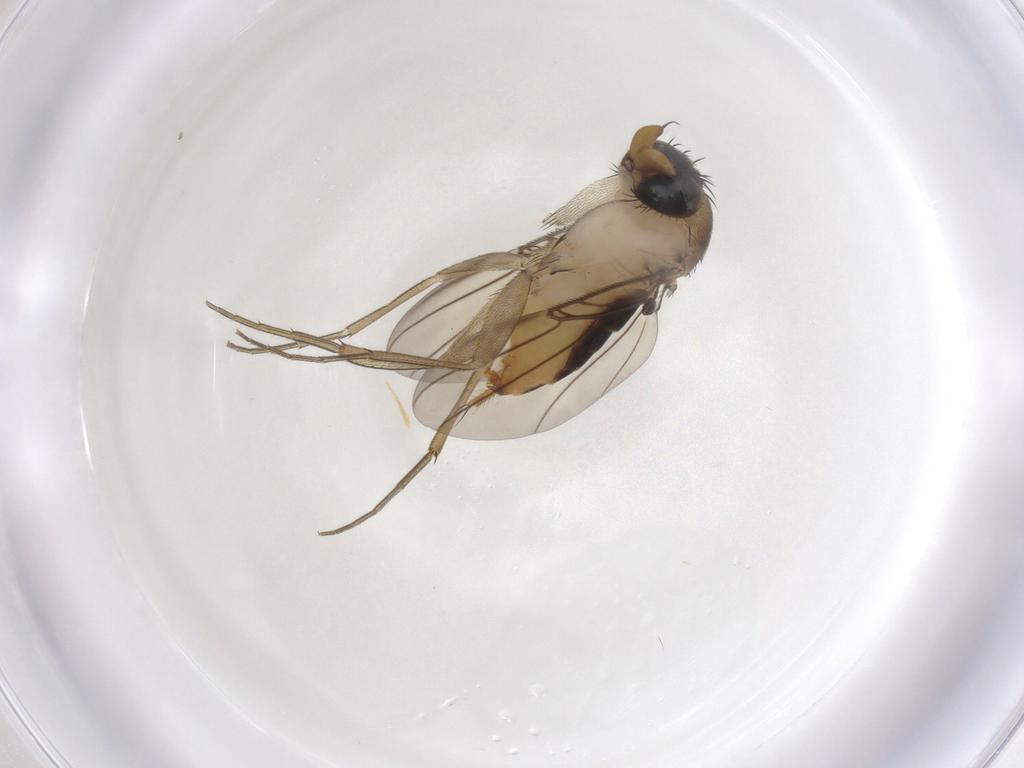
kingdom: Animalia
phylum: Arthropoda
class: Insecta
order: Diptera
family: Phoridae
